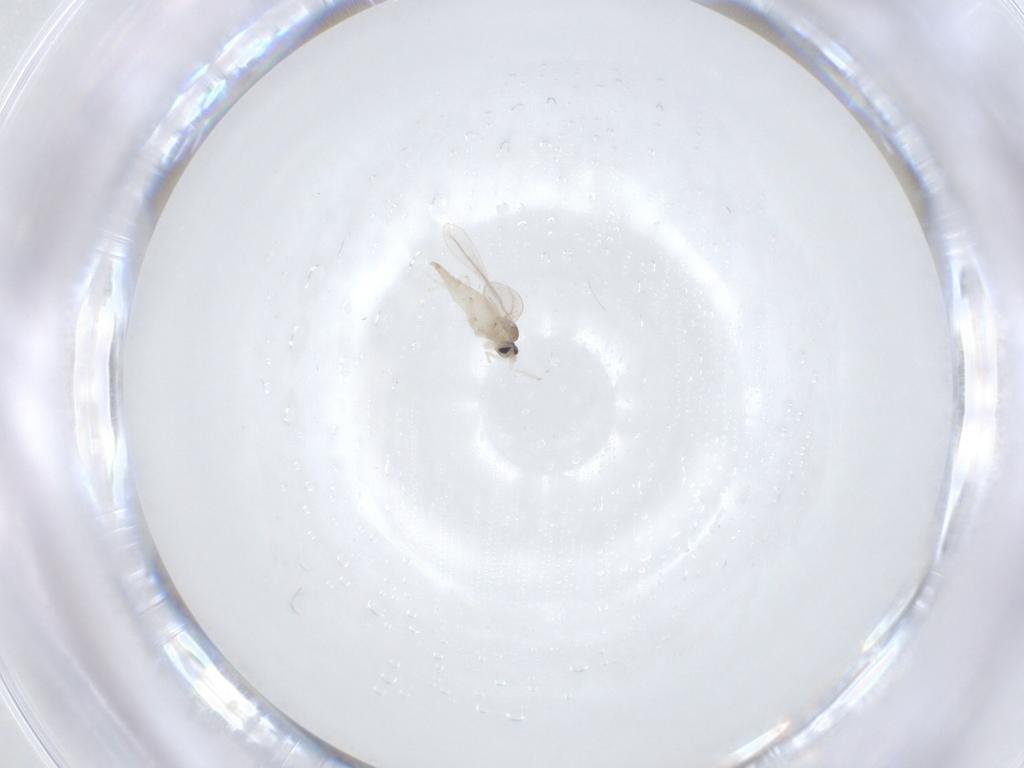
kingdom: Animalia
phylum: Arthropoda
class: Insecta
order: Diptera
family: Cecidomyiidae
